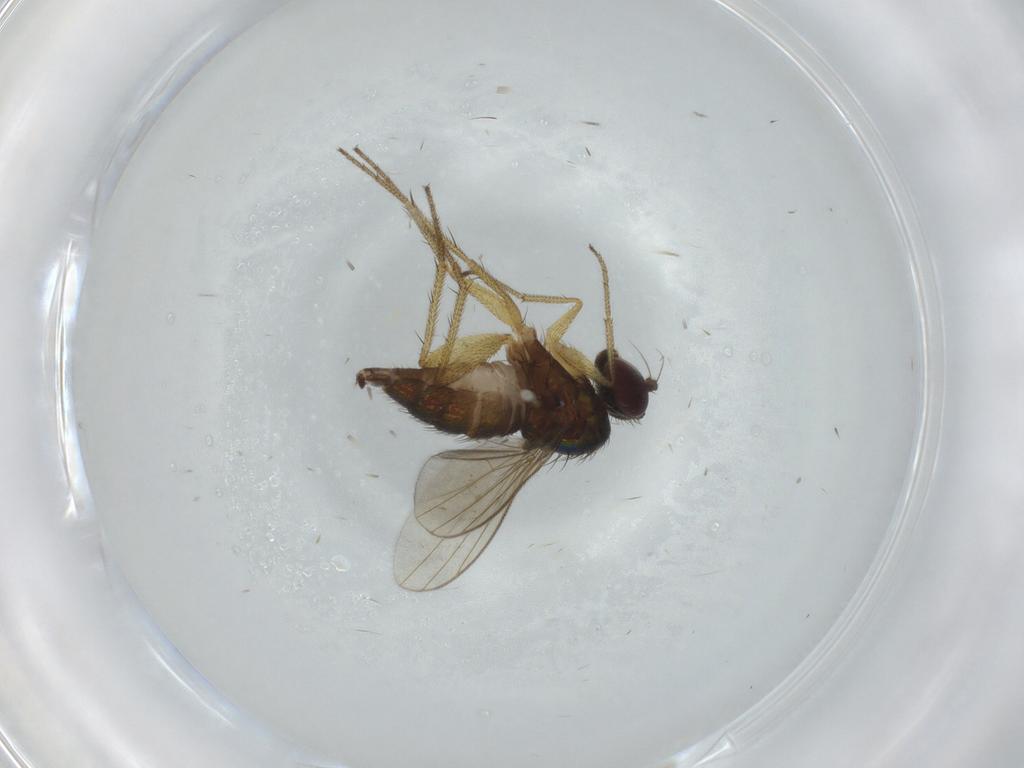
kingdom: Animalia
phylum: Arthropoda
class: Insecta
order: Diptera
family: Dolichopodidae
